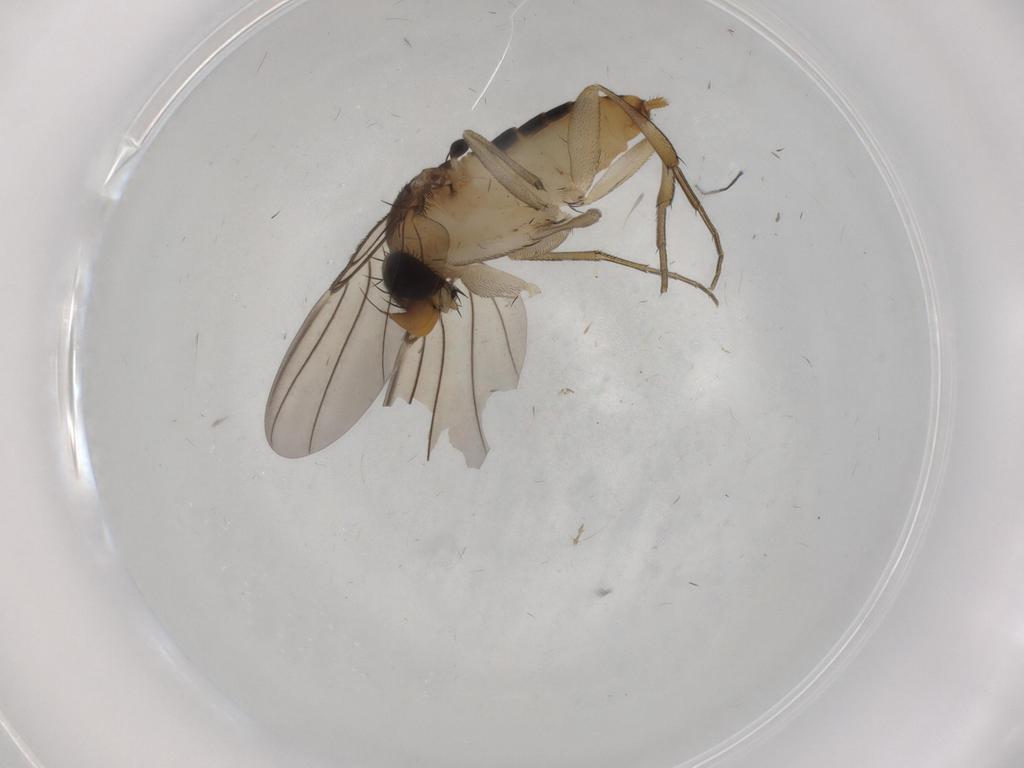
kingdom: Animalia
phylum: Arthropoda
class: Insecta
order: Diptera
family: Phoridae
